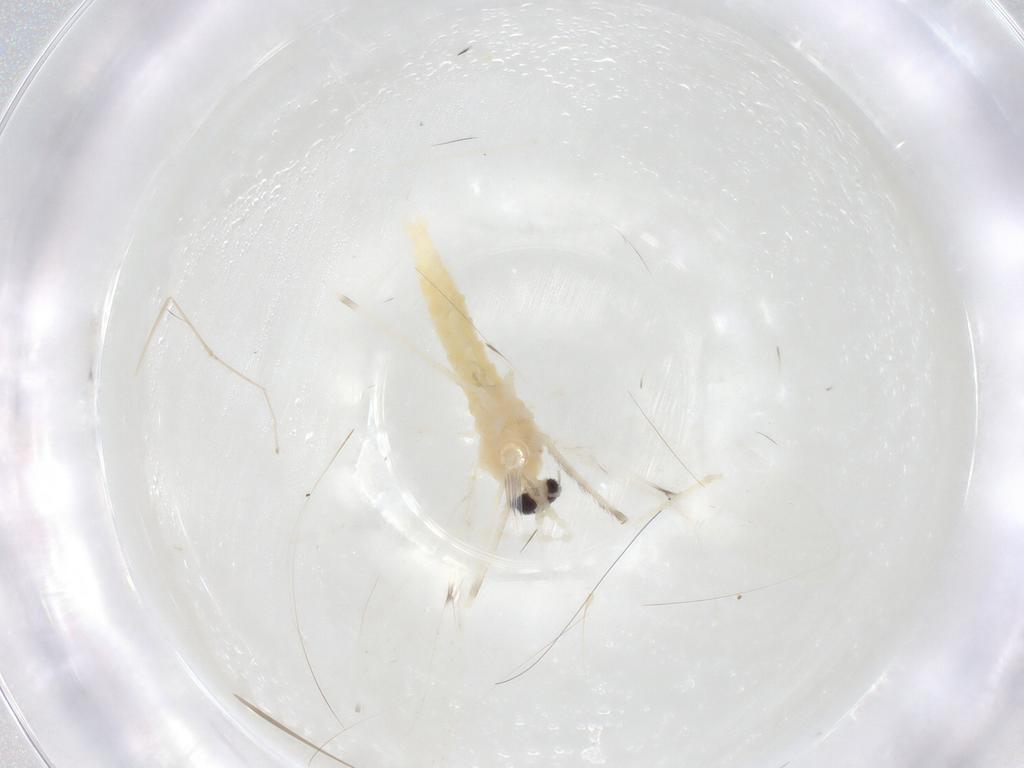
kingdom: Animalia
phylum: Arthropoda
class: Insecta
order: Diptera
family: Cecidomyiidae
